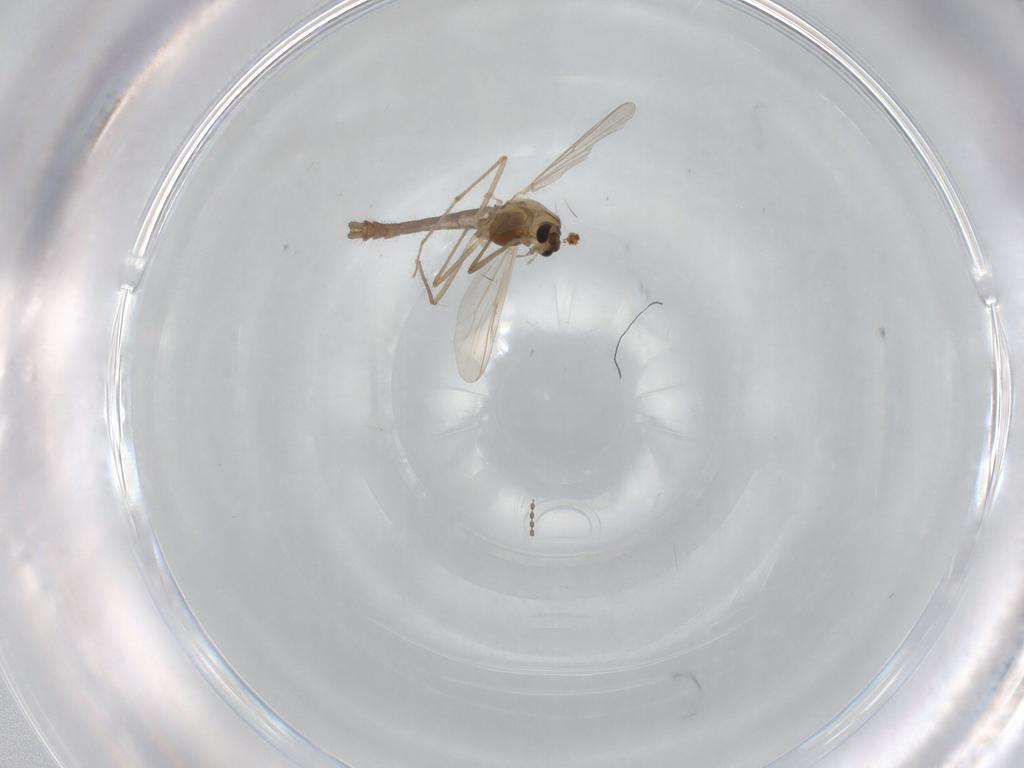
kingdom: Animalia
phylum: Arthropoda
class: Insecta
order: Diptera
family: Chironomidae
